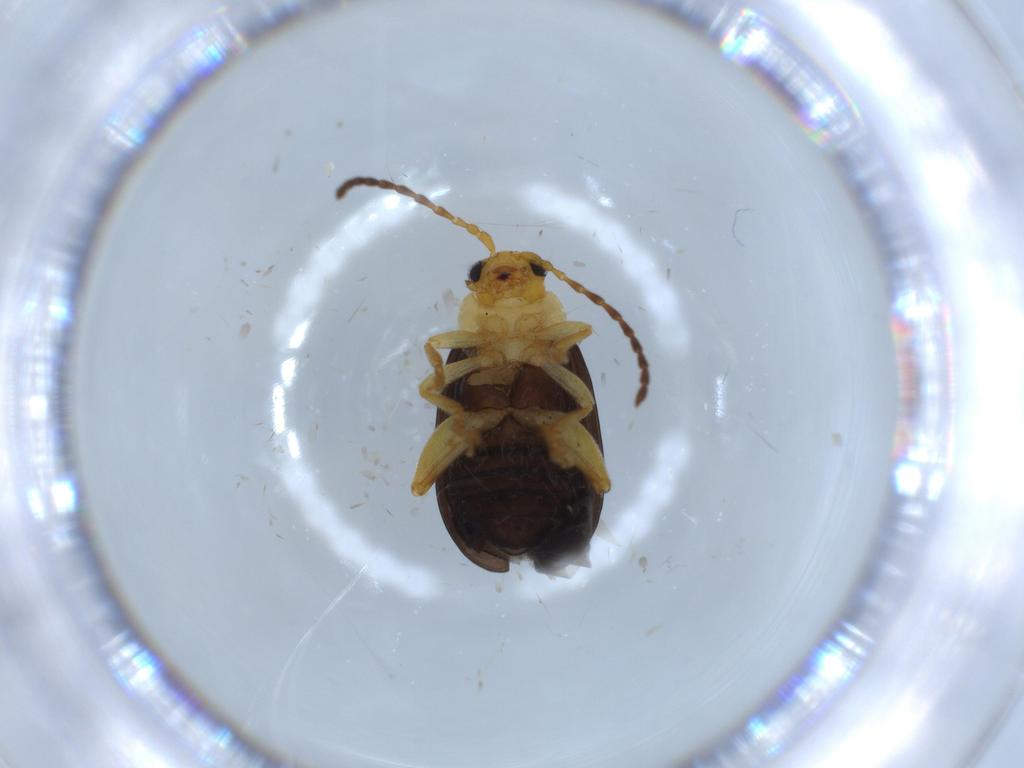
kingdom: Animalia
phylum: Arthropoda
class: Insecta
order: Coleoptera
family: Chrysomelidae
